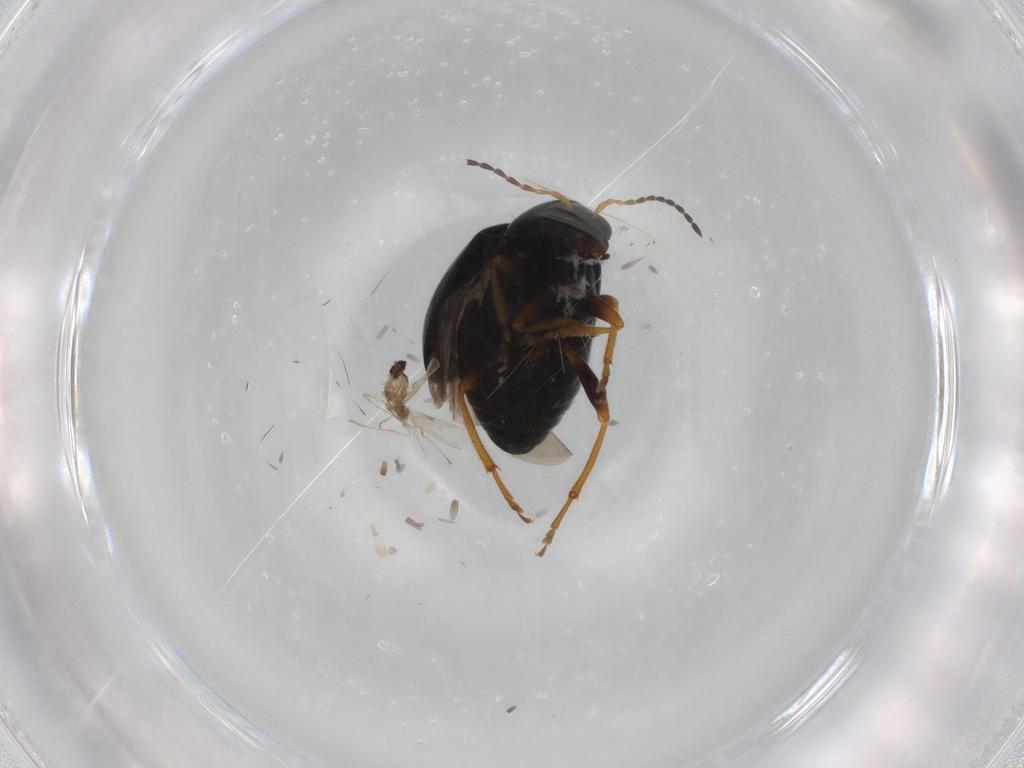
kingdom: Animalia
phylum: Arthropoda
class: Insecta
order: Coleoptera
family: Chrysomelidae
